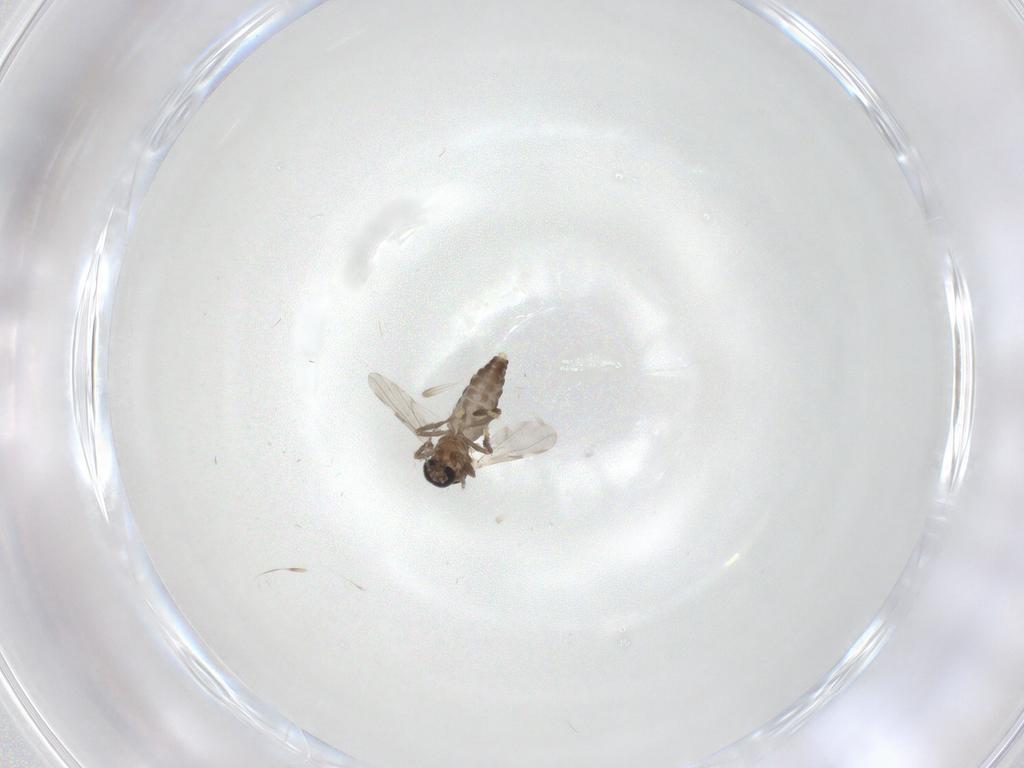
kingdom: Animalia
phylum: Arthropoda
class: Insecta
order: Diptera
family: Ceratopogonidae
